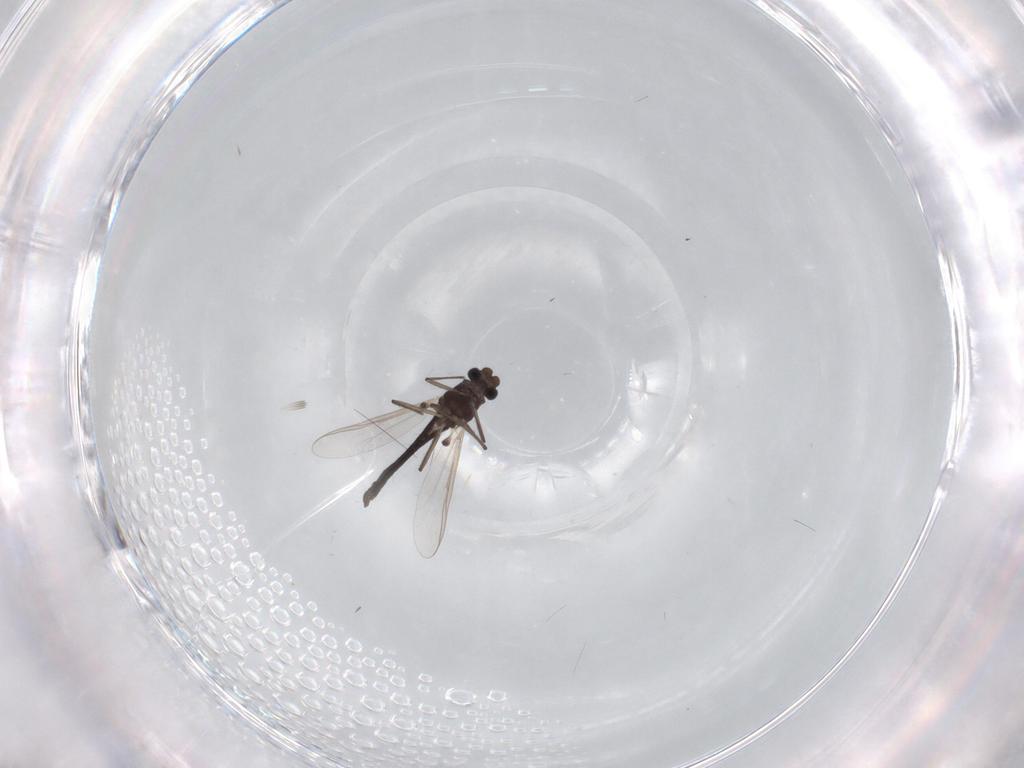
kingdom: Animalia
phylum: Arthropoda
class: Insecta
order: Diptera
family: Chironomidae
